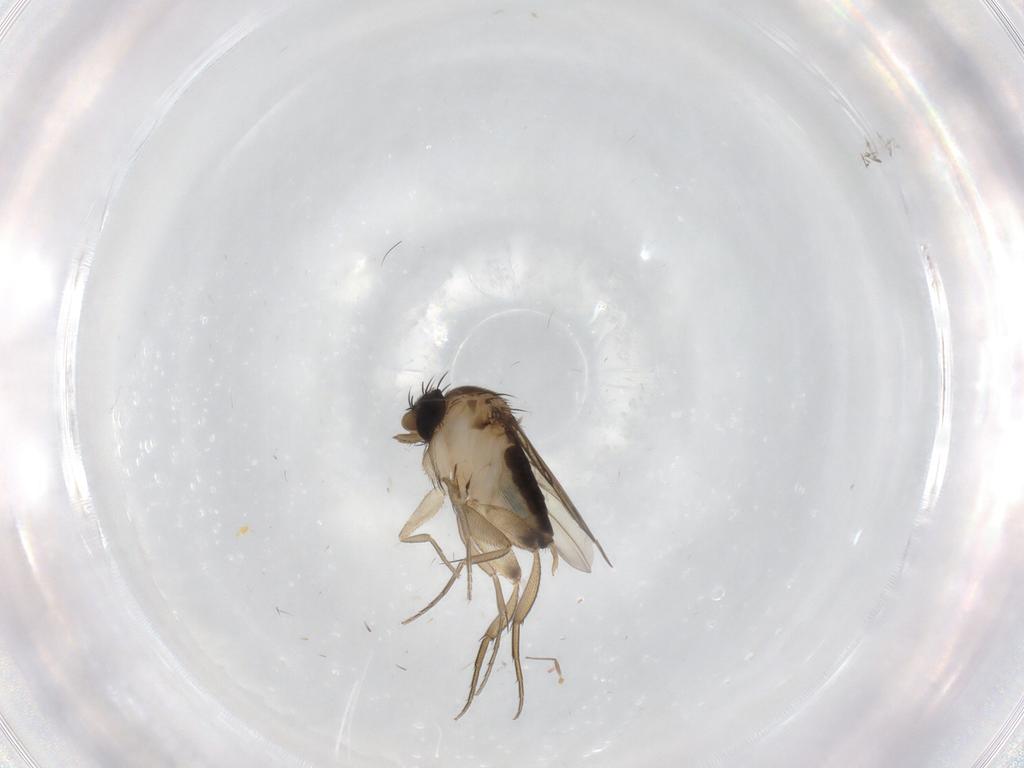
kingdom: Animalia
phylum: Arthropoda
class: Insecta
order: Diptera
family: Phoridae
